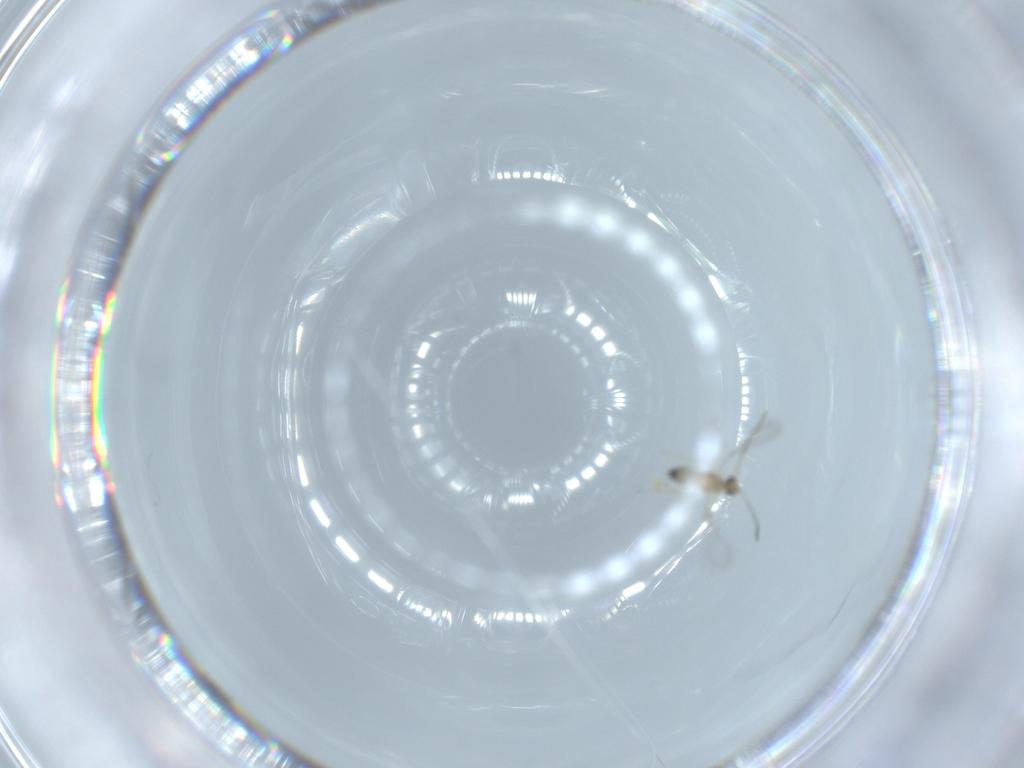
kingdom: Animalia
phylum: Arthropoda
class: Insecta
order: Hymenoptera
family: Mymaridae
